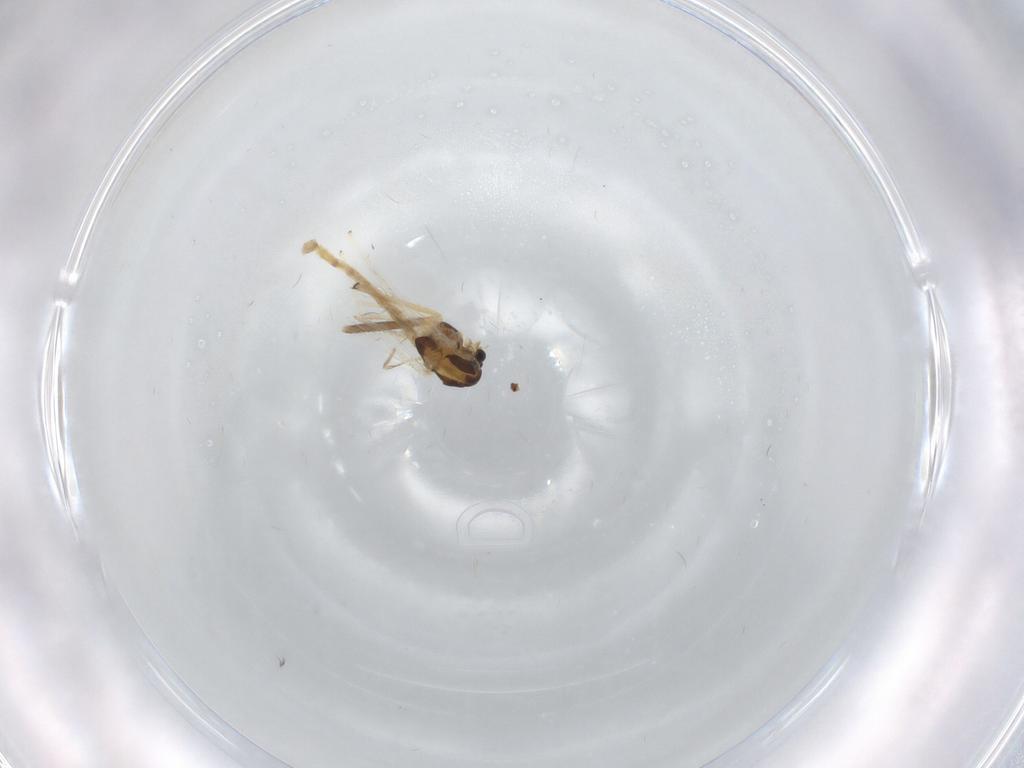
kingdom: Animalia
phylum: Arthropoda
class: Insecta
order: Diptera
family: Chironomidae
